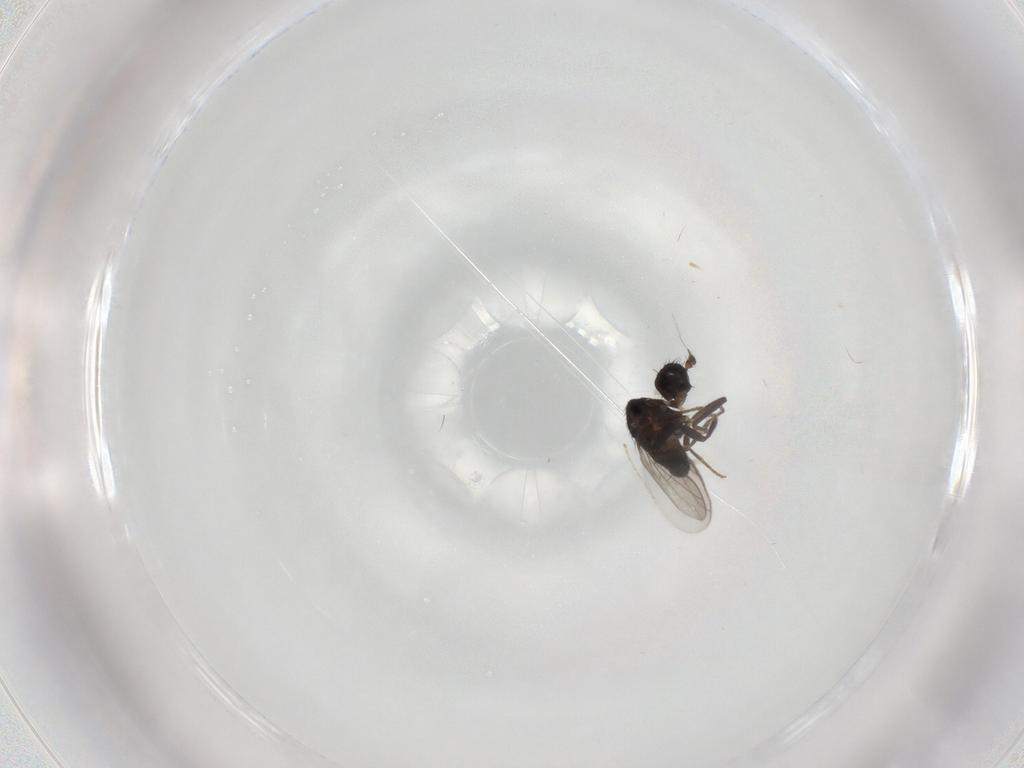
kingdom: Animalia
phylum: Arthropoda
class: Insecta
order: Diptera
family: Sphaeroceridae
